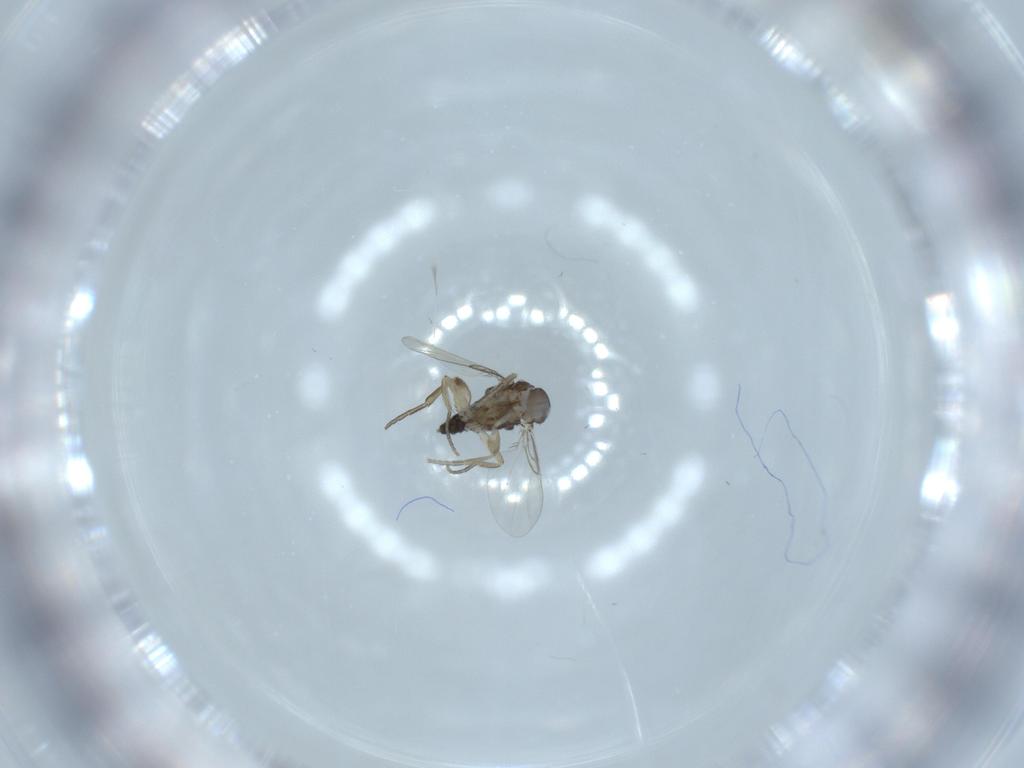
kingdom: Animalia
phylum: Arthropoda
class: Insecta
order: Diptera
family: Phoridae
